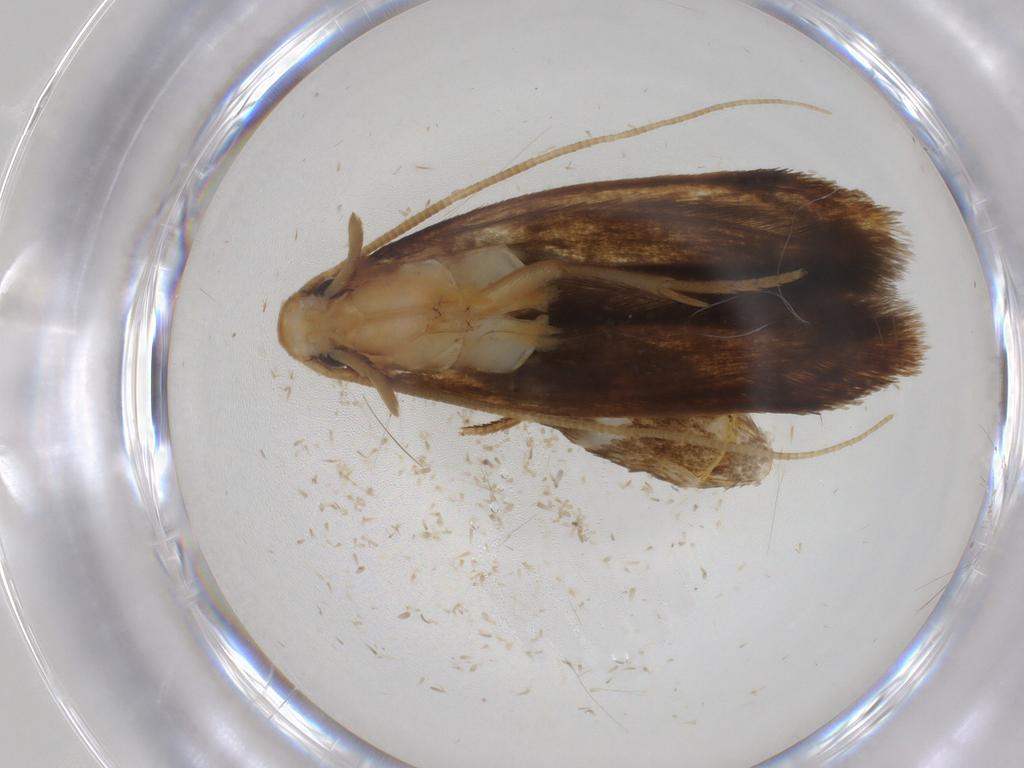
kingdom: Animalia
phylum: Arthropoda
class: Insecta
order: Lepidoptera
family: Tineidae
